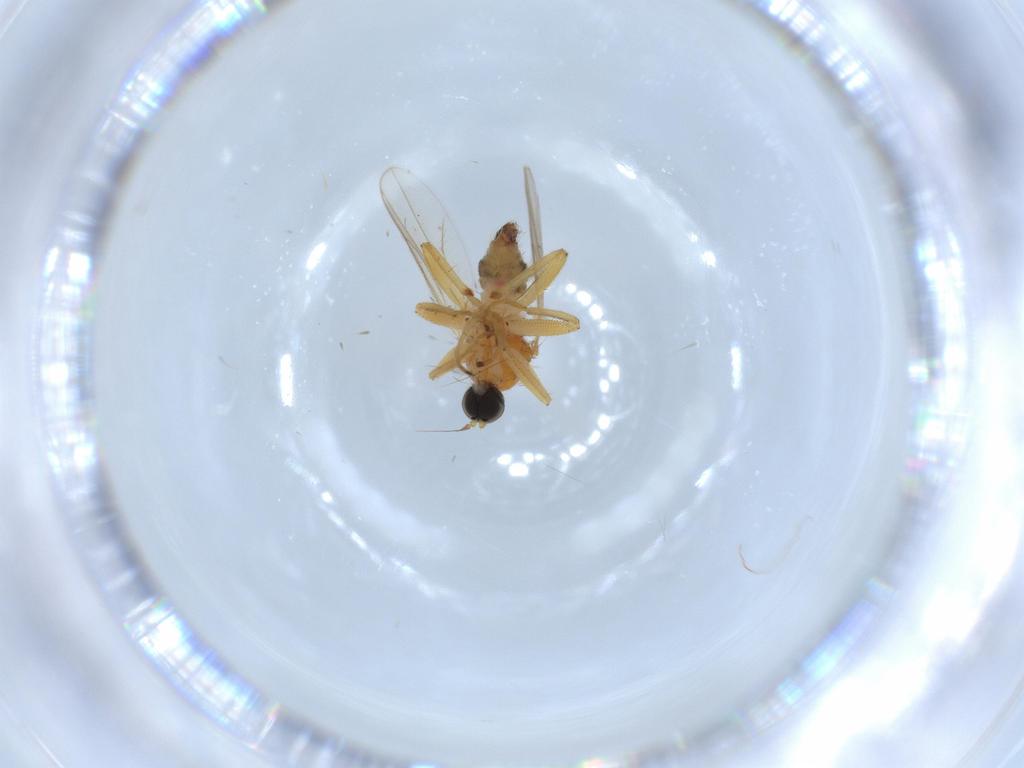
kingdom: Animalia
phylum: Arthropoda
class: Insecta
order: Diptera
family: Hybotidae
